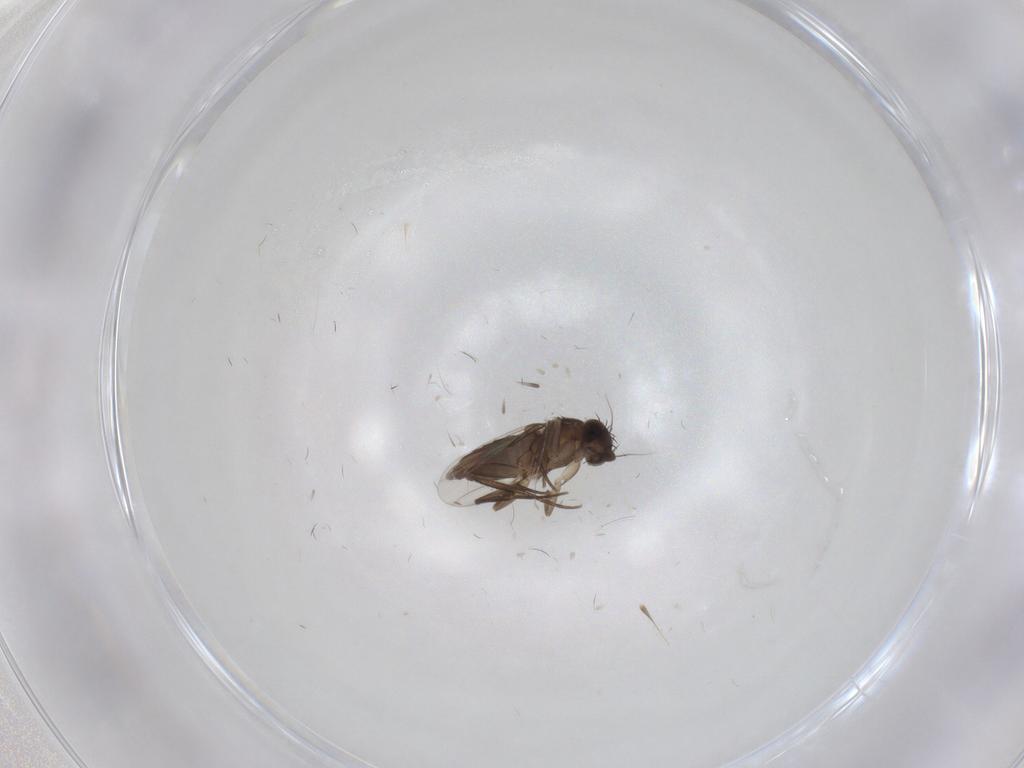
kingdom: Animalia
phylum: Arthropoda
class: Insecta
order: Diptera
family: Phoridae
